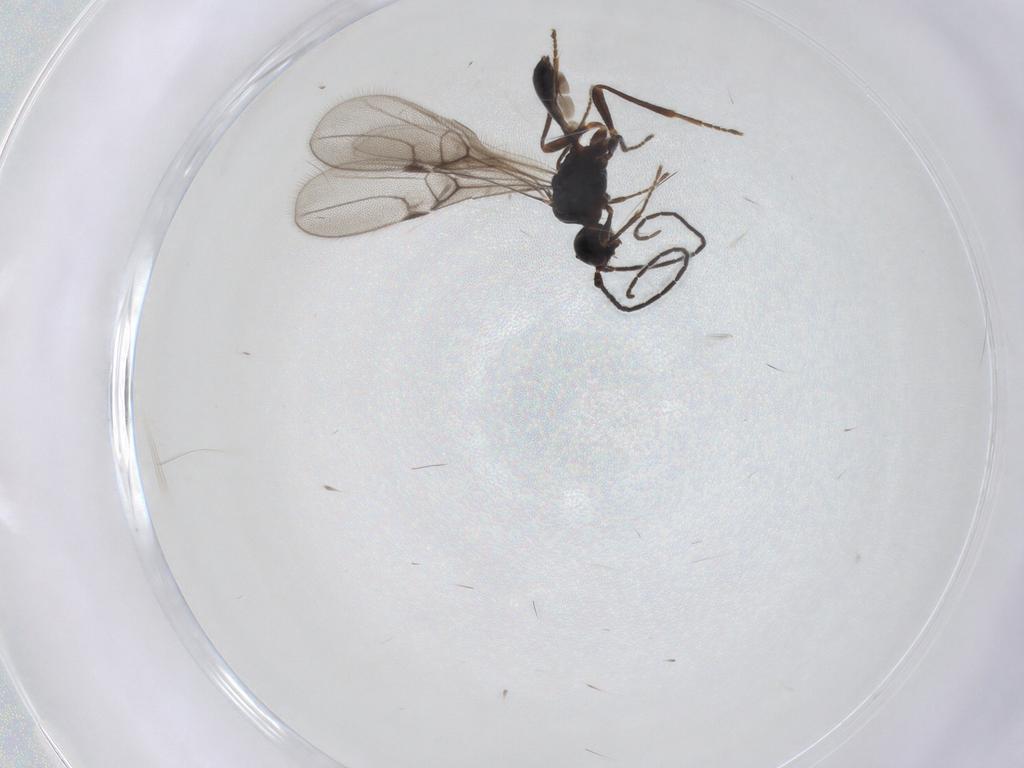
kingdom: Animalia
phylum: Arthropoda
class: Insecta
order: Hymenoptera
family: Braconidae
